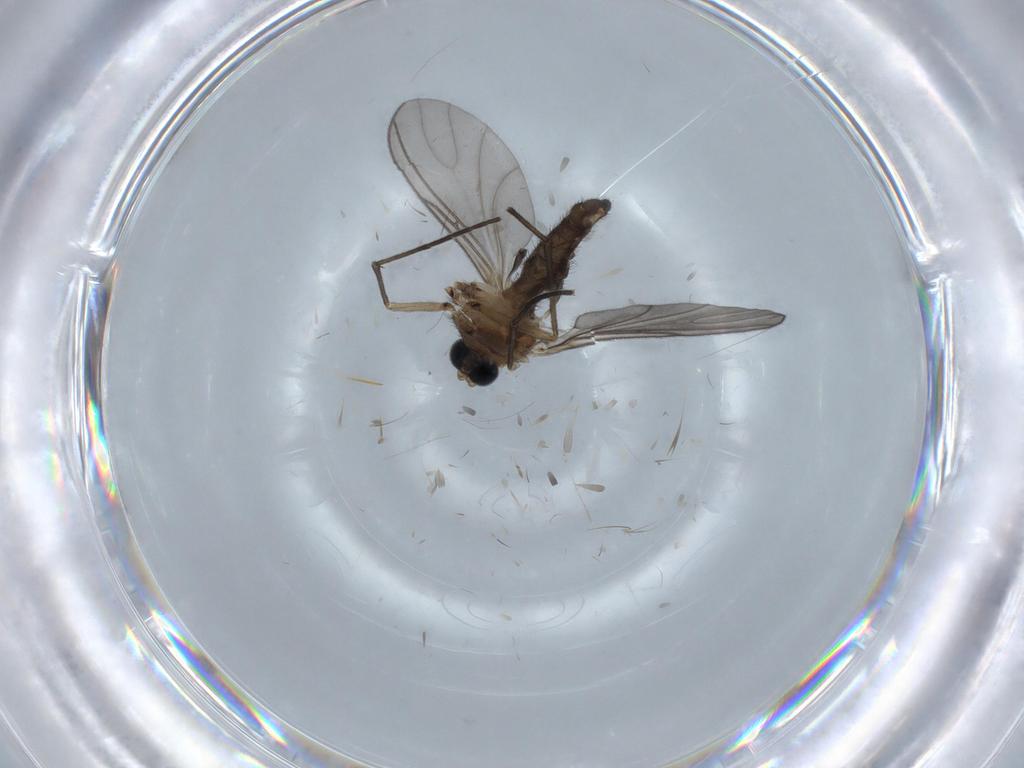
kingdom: Animalia
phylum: Arthropoda
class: Insecta
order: Diptera
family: Sciaridae
